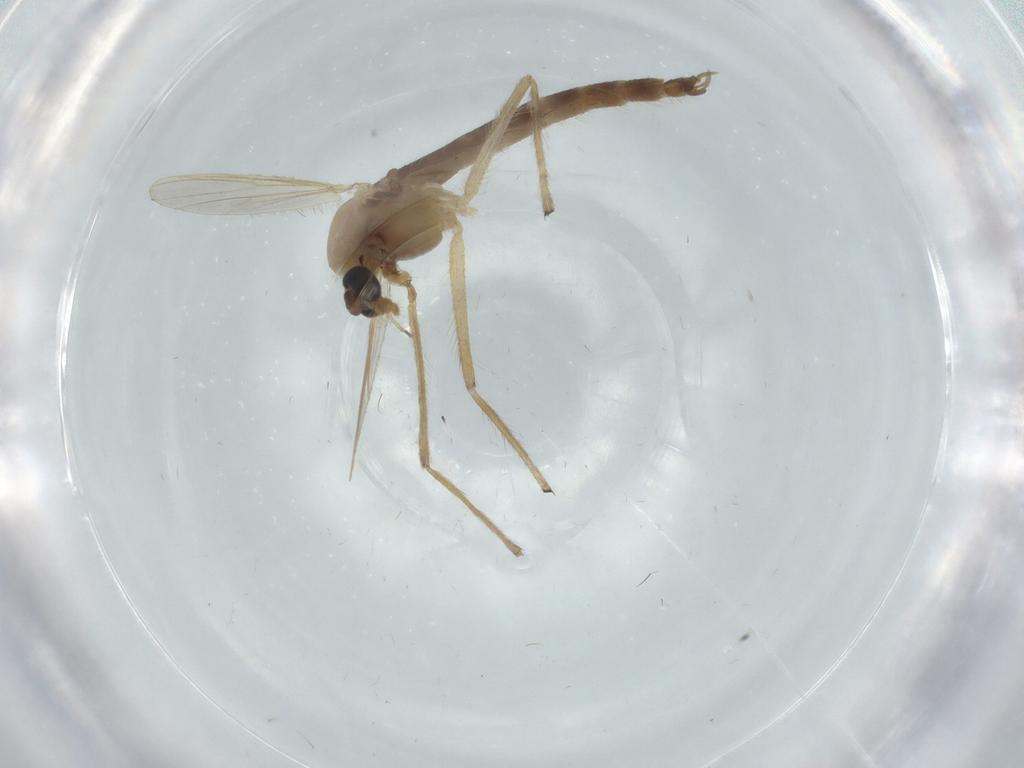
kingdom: Animalia
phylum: Arthropoda
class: Insecta
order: Diptera
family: Chironomidae
